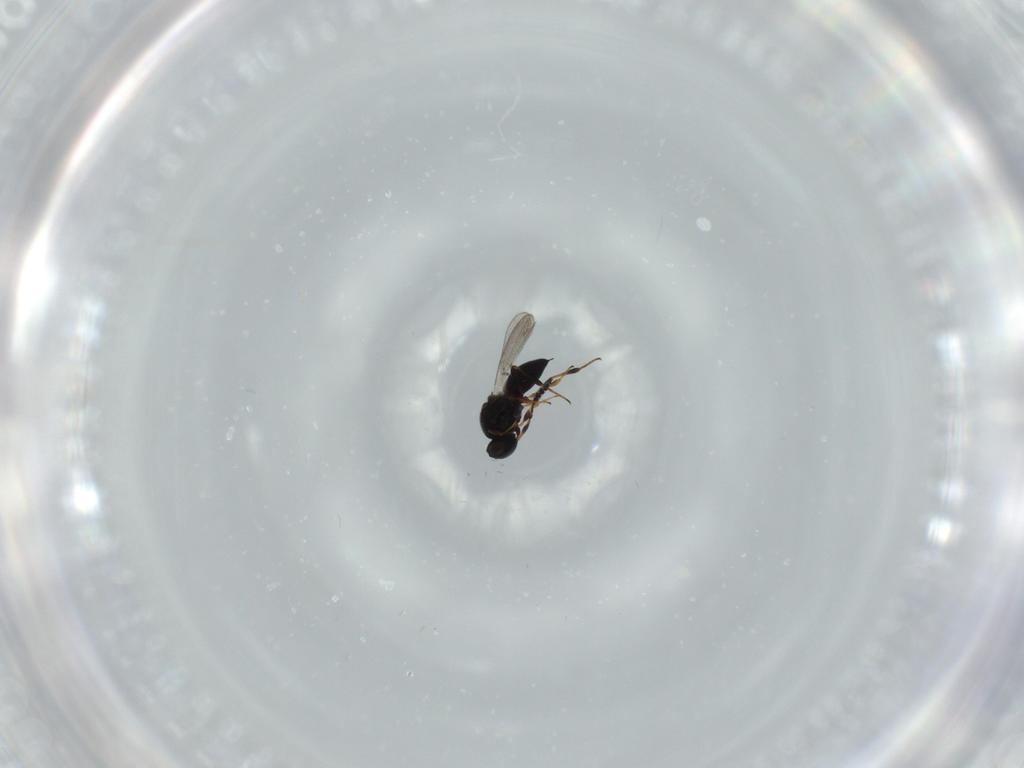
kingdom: Animalia
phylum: Arthropoda
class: Insecta
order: Hymenoptera
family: Platygastridae
